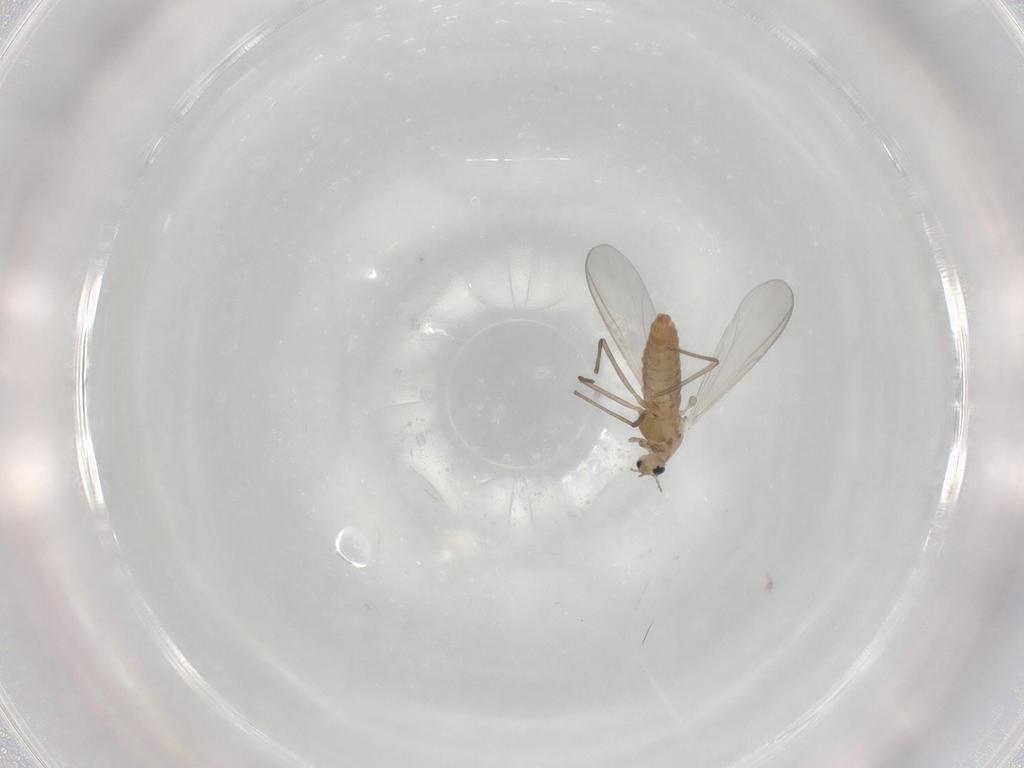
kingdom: Animalia
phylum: Arthropoda
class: Insecta
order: Diptera
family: Chironomidae
